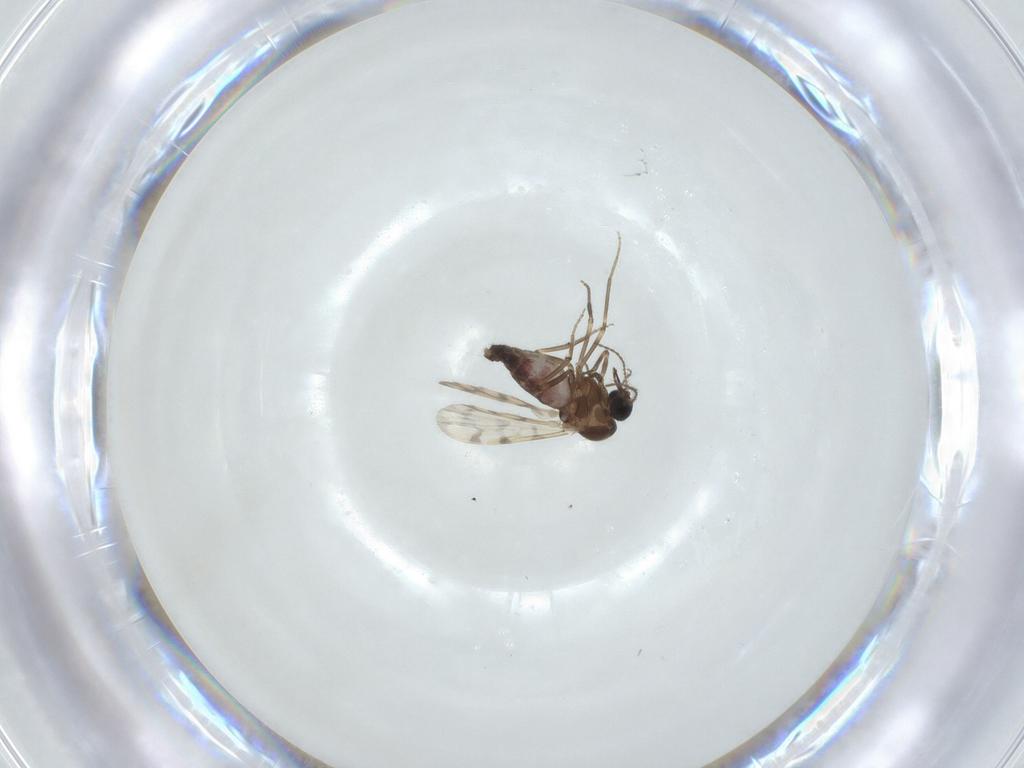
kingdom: Animalia
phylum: Arthropoda
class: Insecta
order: Diptera
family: Ceratopogonidae
